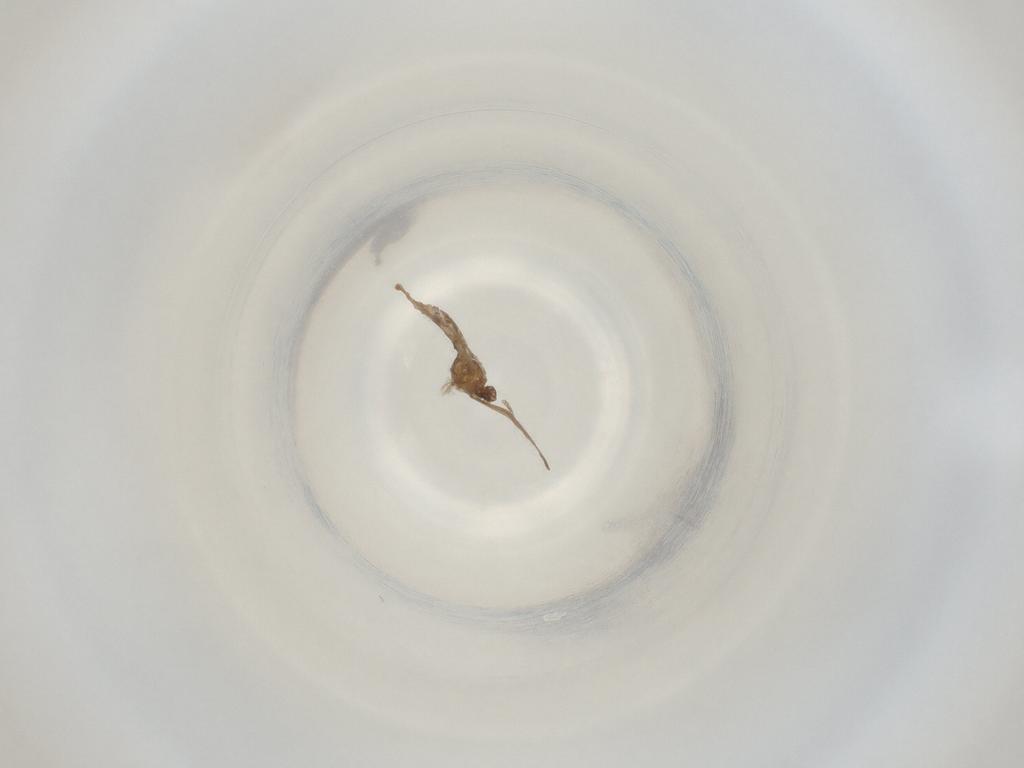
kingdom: Animalia
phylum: Arthropoda
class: Insecta
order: Diptera
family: Cecidomyiidae
